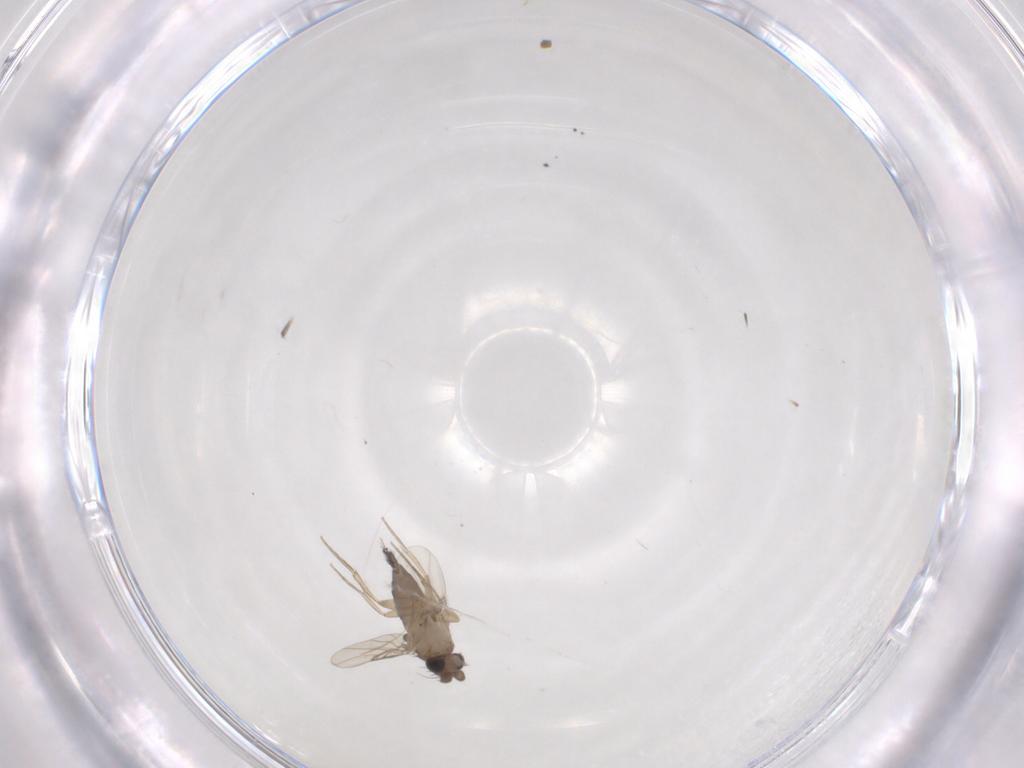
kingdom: Animalia
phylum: Arthropoda
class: Insecta
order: Diptera
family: Phoridae
